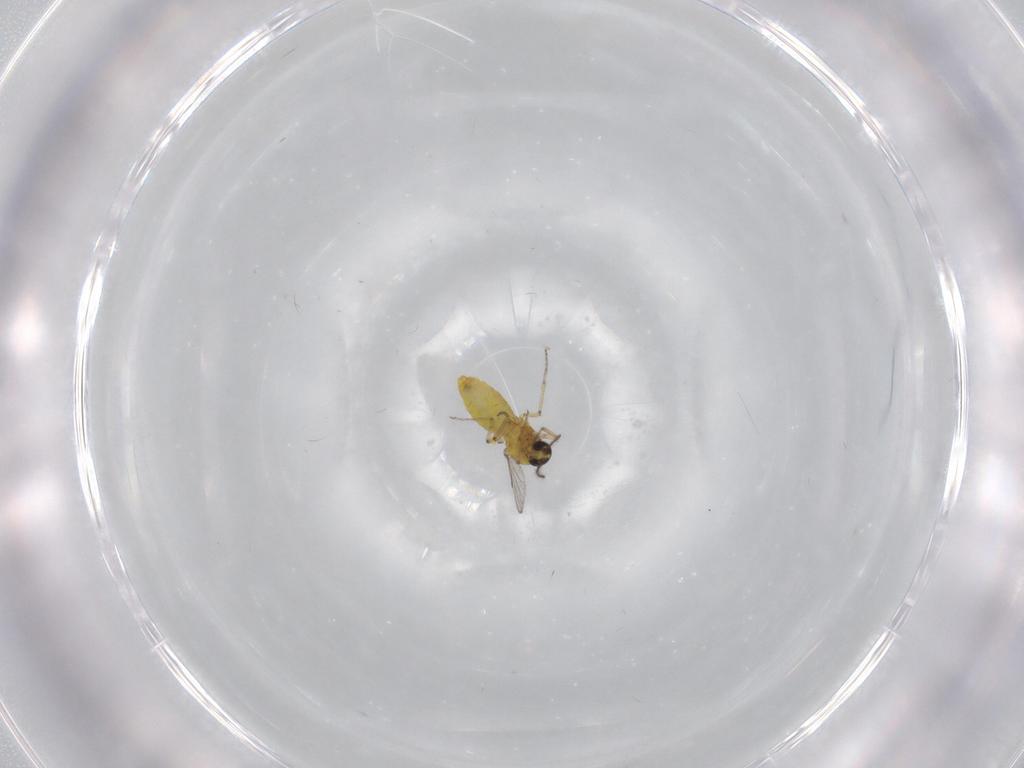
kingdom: Animalia
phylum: Arthropoda
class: Insecta
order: Diptera
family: Ceratopogonidae
